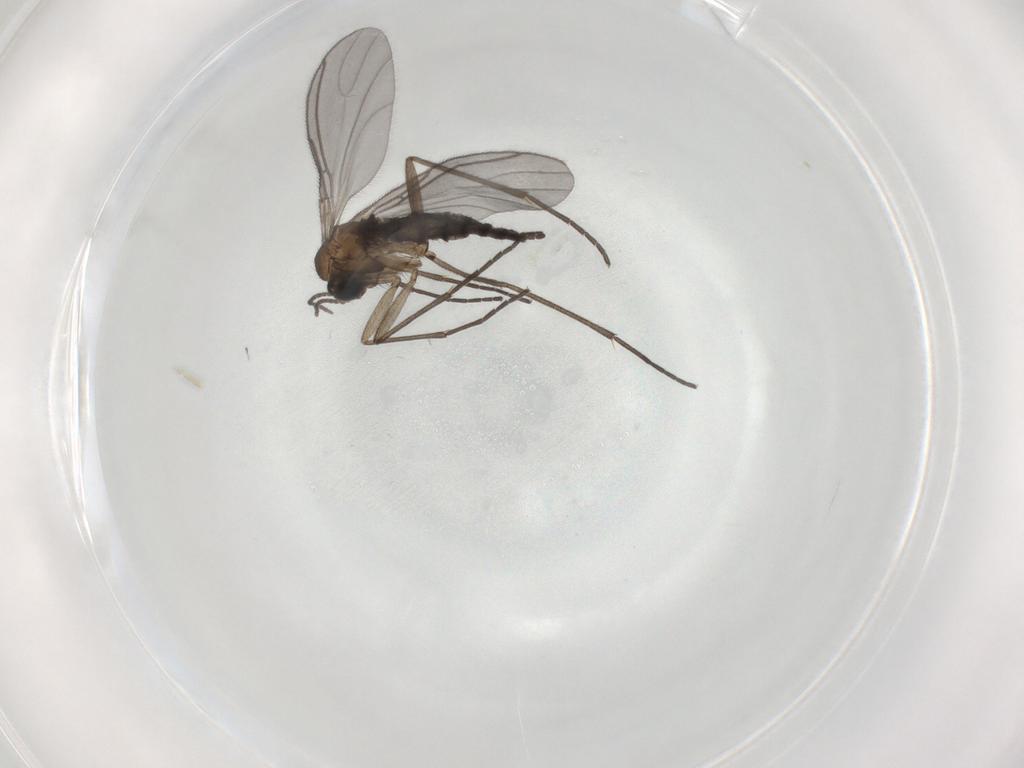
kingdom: Animalia
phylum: Arthropoda
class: Insecta
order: Diptera
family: Sciaridae
